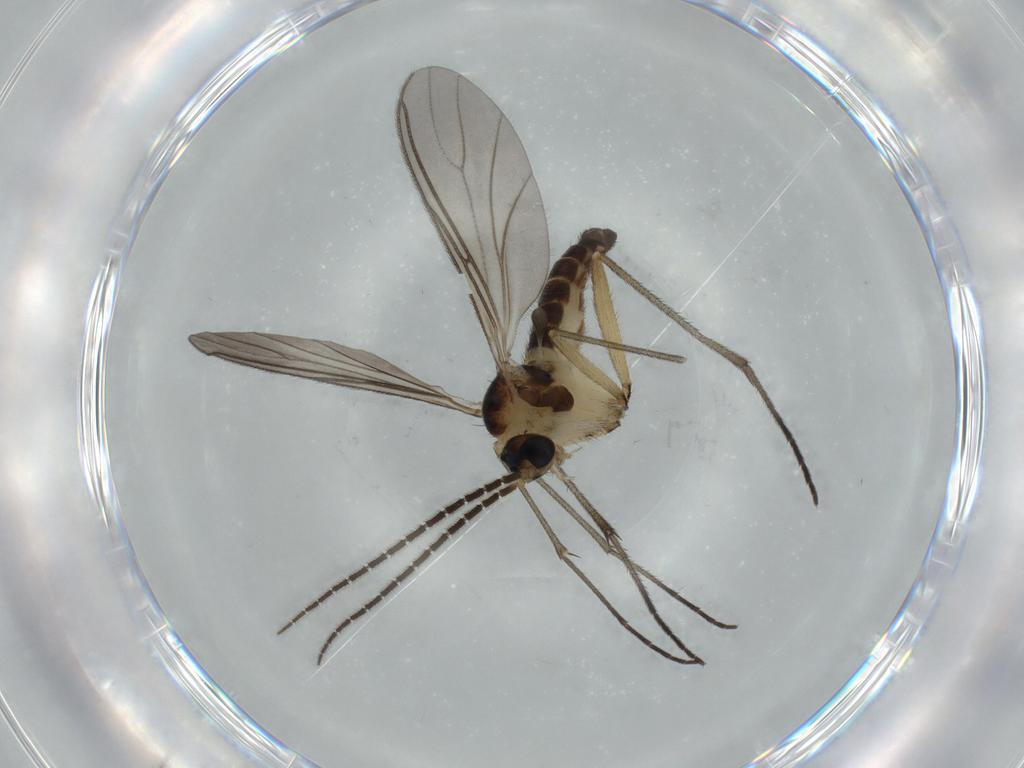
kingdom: Animalia
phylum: Arthropoda
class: Insecta
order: Diptera
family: Sciaridae
